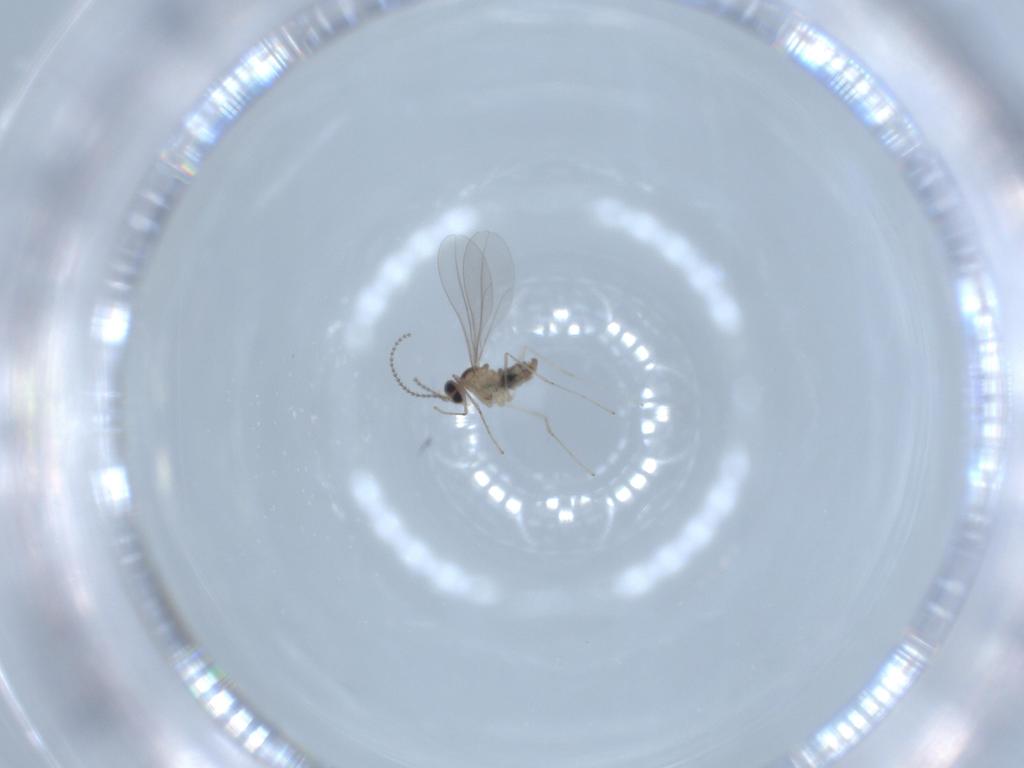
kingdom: Animalia
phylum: Arthropoda
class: Insecta
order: Diptera
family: Cecidomyiidae
